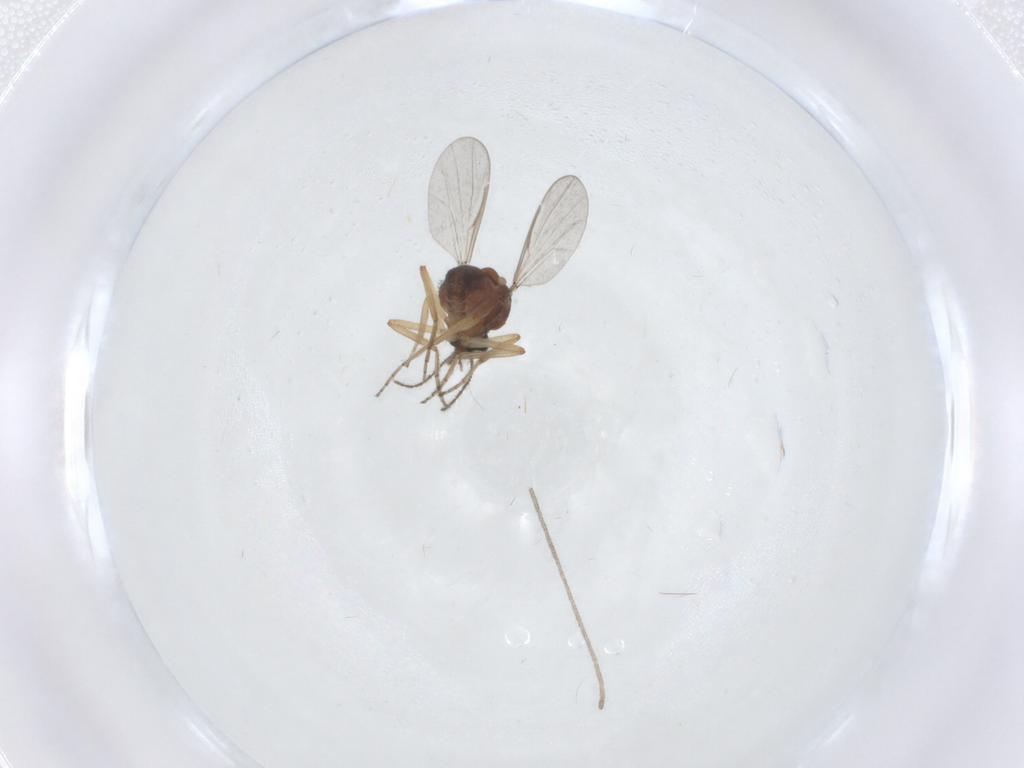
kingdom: Animalia
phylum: Arthropoda
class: Insecta
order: Diptera
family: Ceratopogonidae
